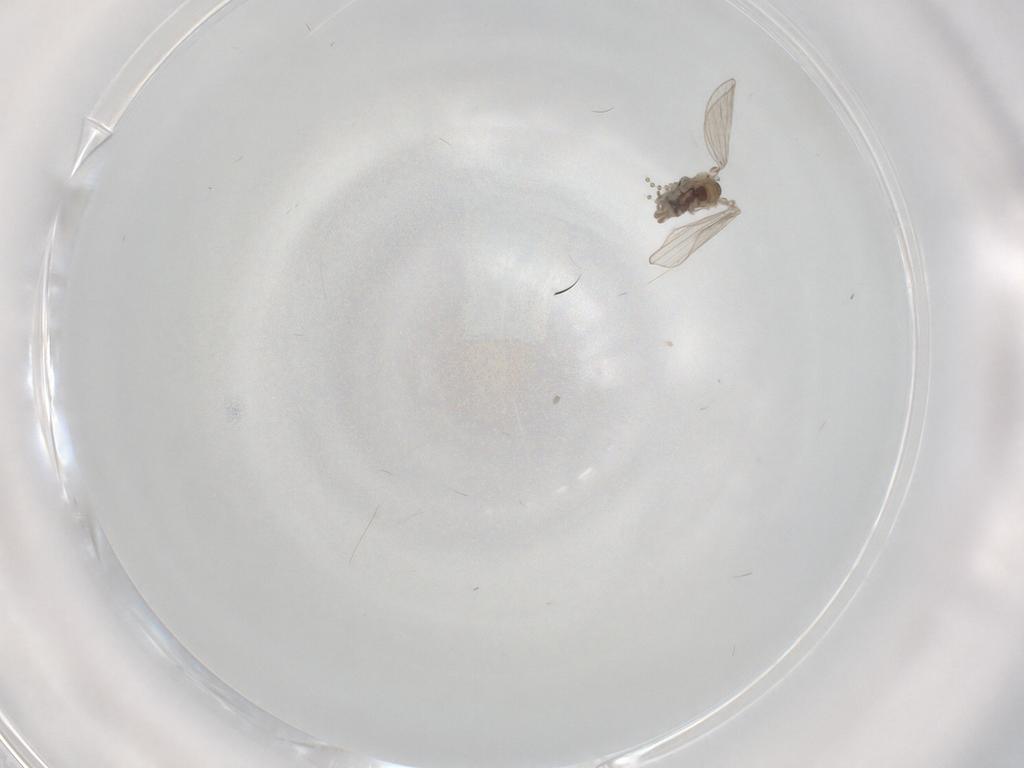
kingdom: Animalia
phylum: Arthropoda
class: Insecta
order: Diptera
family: Psychodidae
